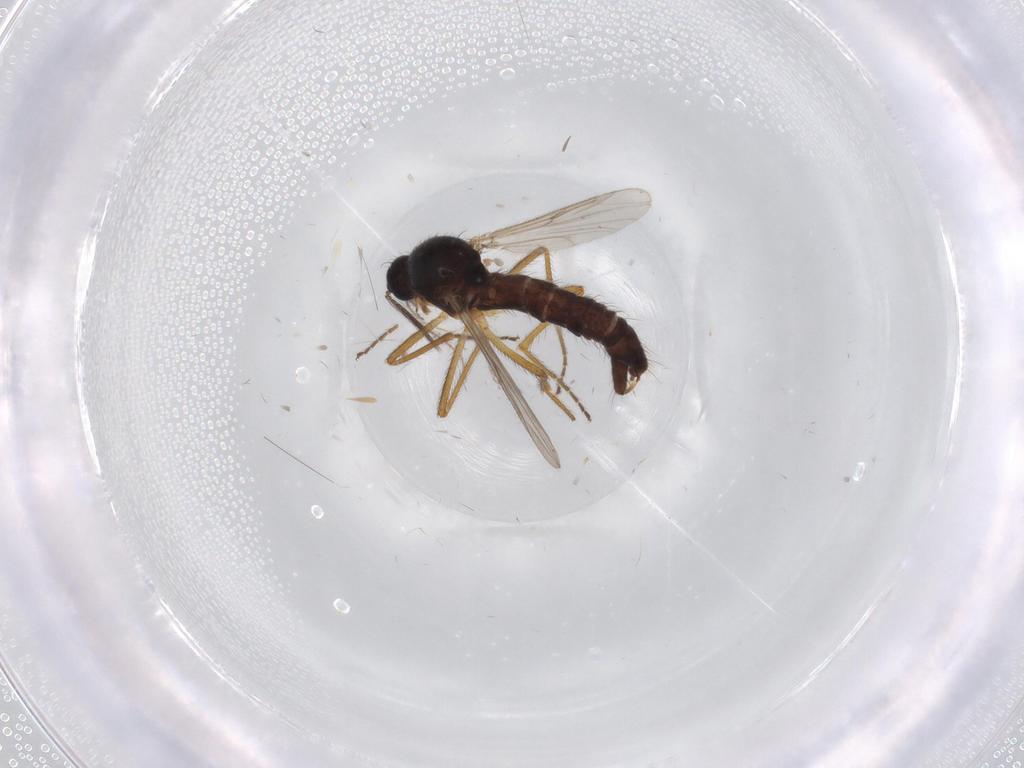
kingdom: Animalia
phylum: Arthropoda
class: Insecta
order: Diptera
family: Ceratopogonidae
